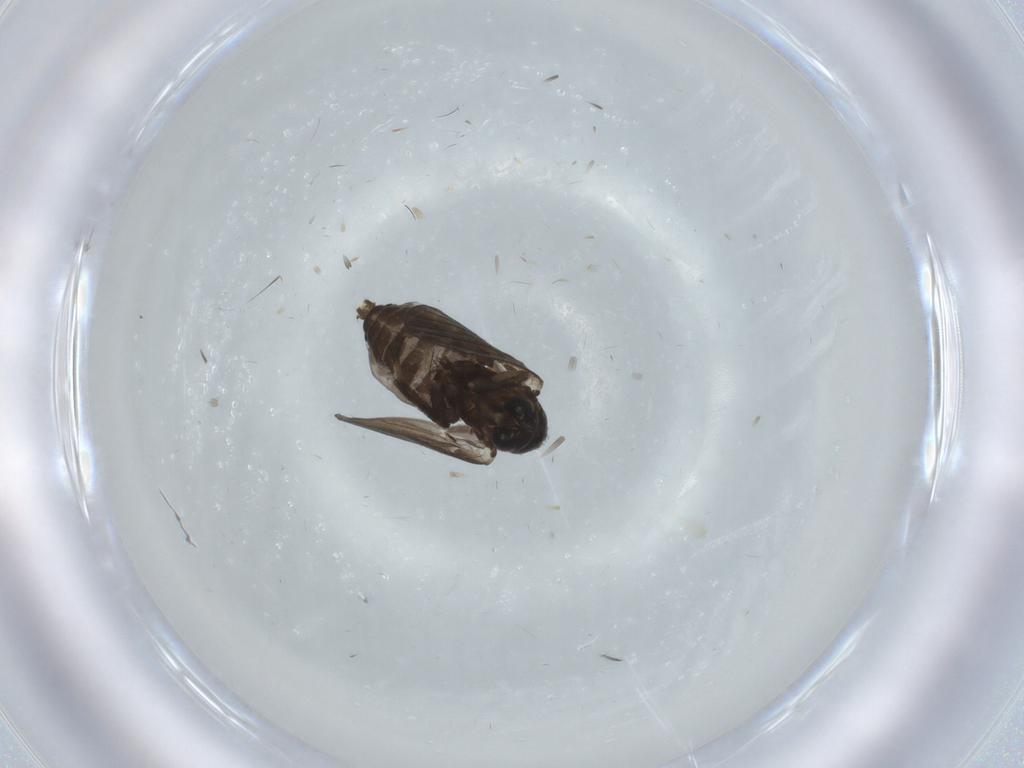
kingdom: Animalia
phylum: Arthropoda
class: Insecta
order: Diptera
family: Psychodidae
